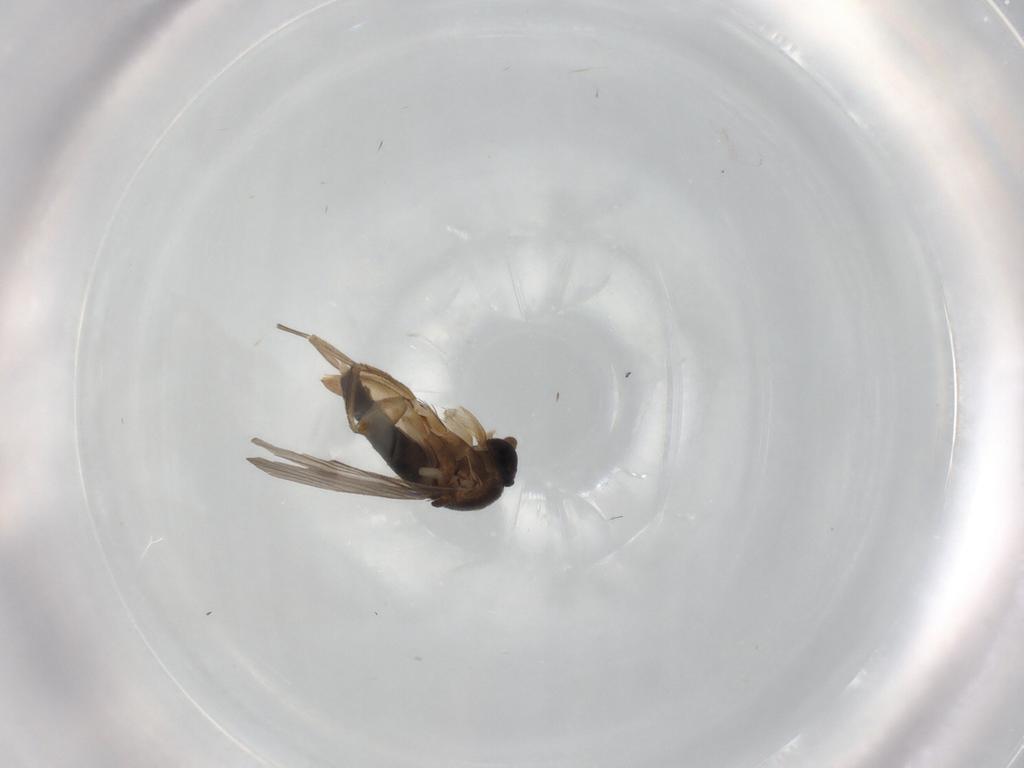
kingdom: Animalia
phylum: Arthropoda
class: Insecta
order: Diptera
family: Phoridae
